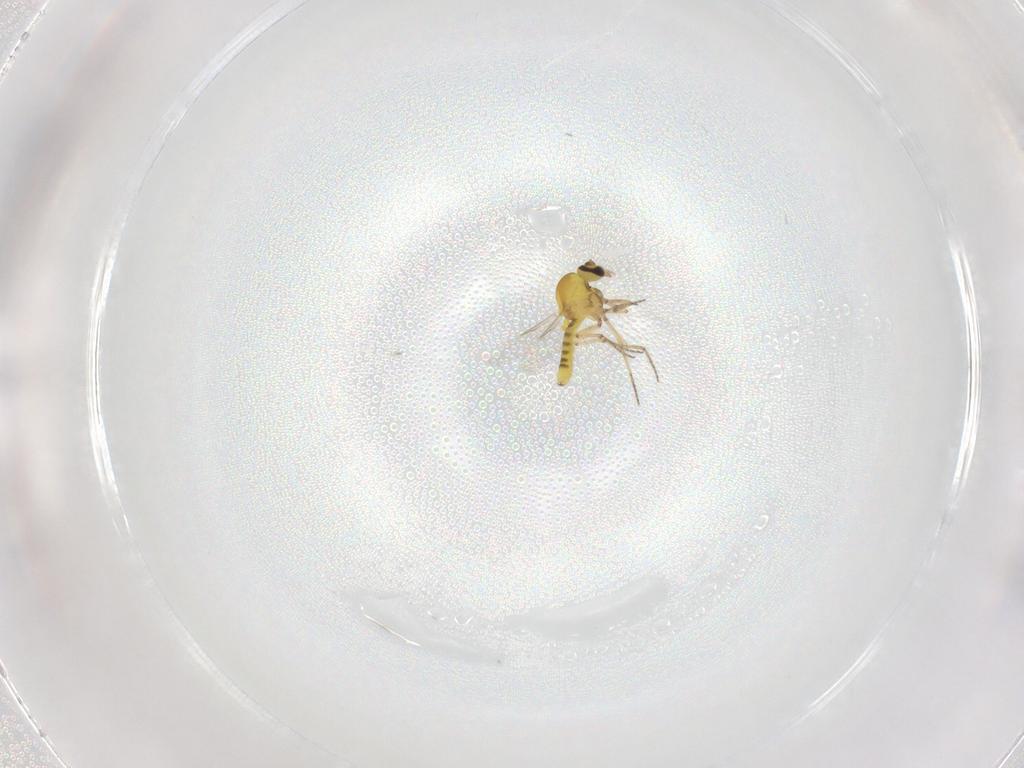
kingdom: Animalia
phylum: Arthropoda
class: Insecta
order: Diptera
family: Ceratopogonidae
